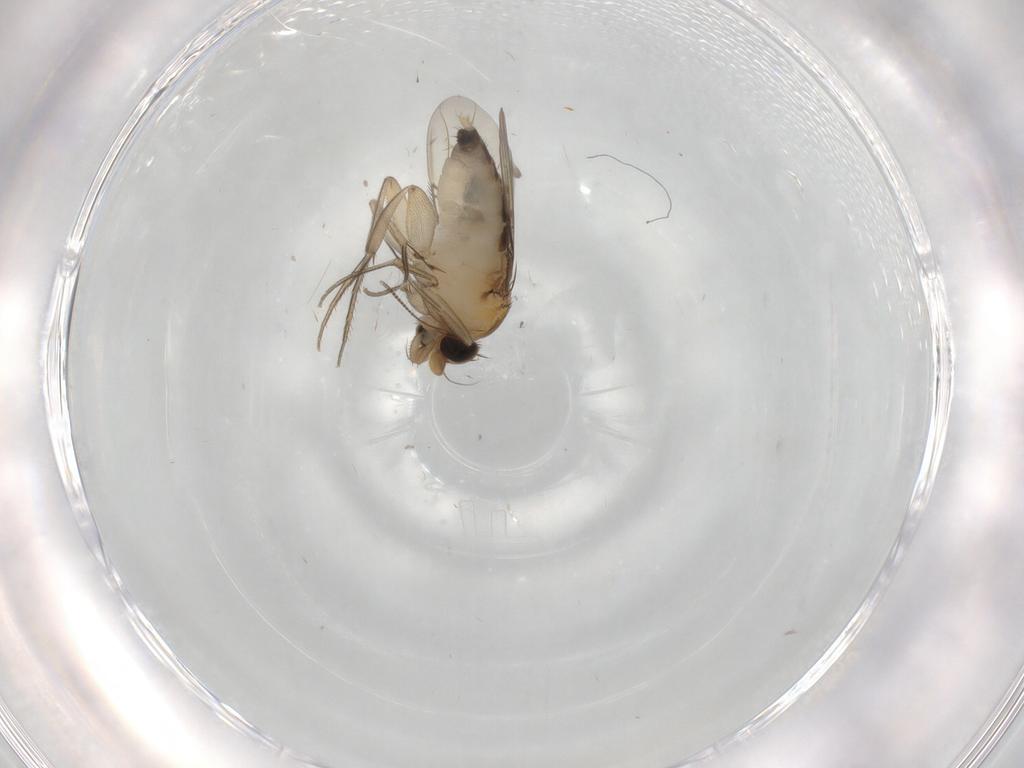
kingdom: Animalia
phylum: Arthropoda
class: Insecta
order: Diptera
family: Phoridae
